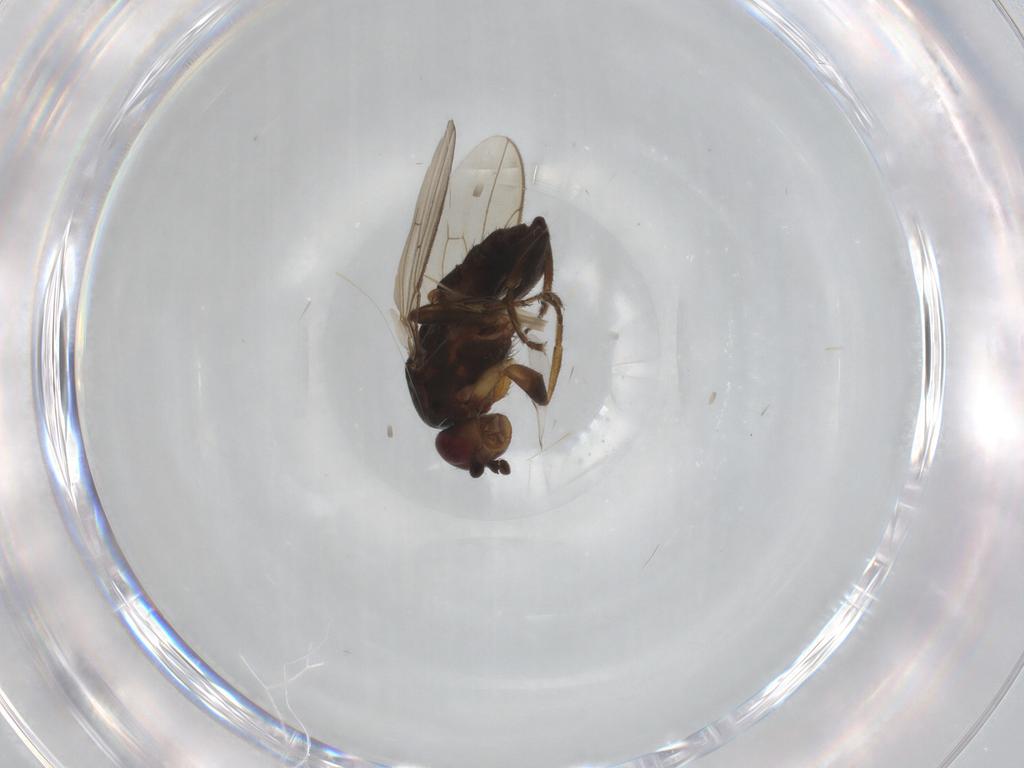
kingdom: Animalia
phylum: Arthropoda
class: Insecta
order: Diptera
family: Sphaeroceridae
